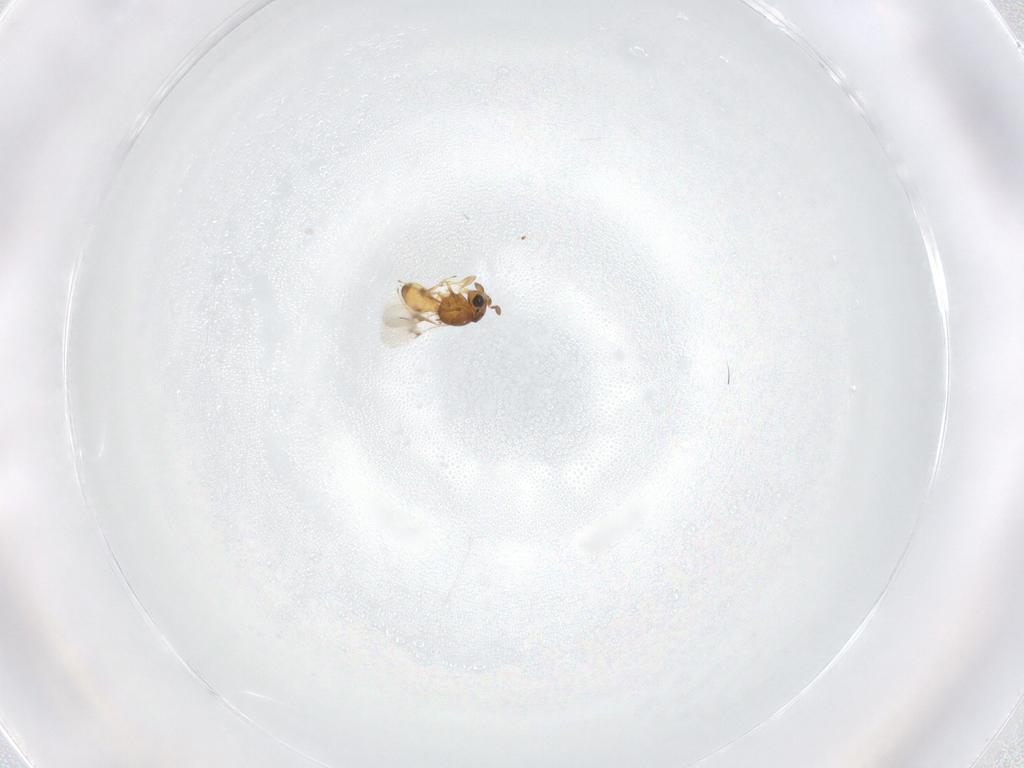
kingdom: Animalia
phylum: Arthropoda
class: Insecta
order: Hymenoptera
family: Scelionidae
